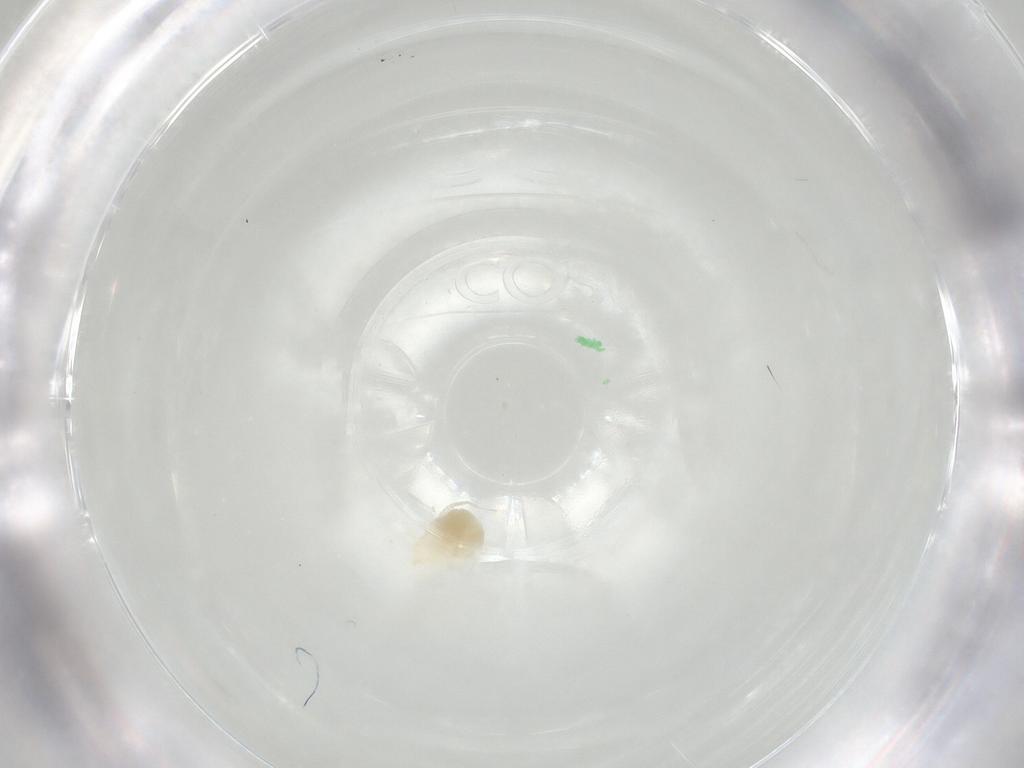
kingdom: Animalia
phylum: Arthropoda
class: Arachnida
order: Trombidiformes
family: Anystidae
